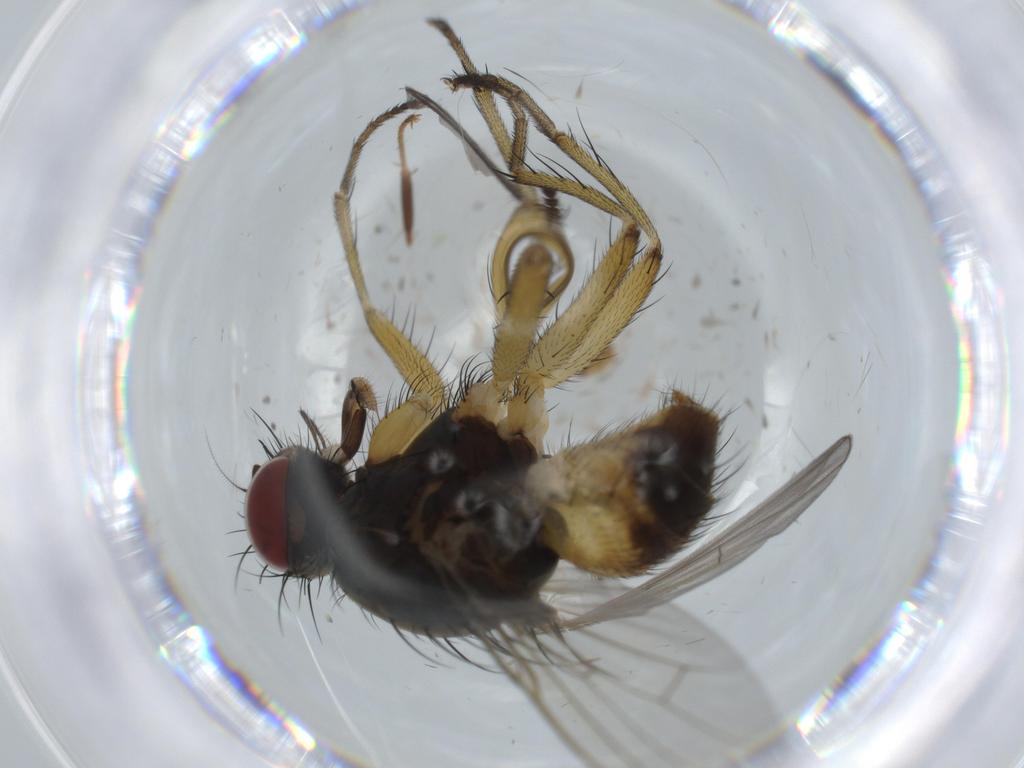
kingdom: Animalia
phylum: Arthropoda
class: Insecta
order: Diptera
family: Muscidae
